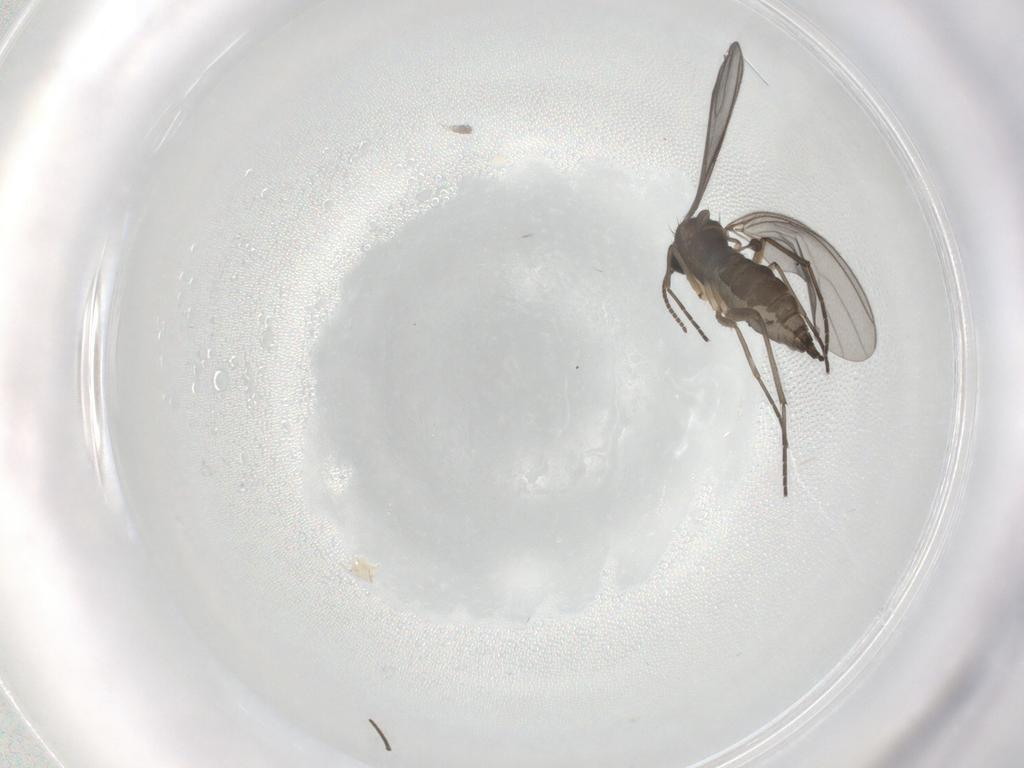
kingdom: Animalia
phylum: Arthropoda
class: Insecta
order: Diptera
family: Sciaridae
